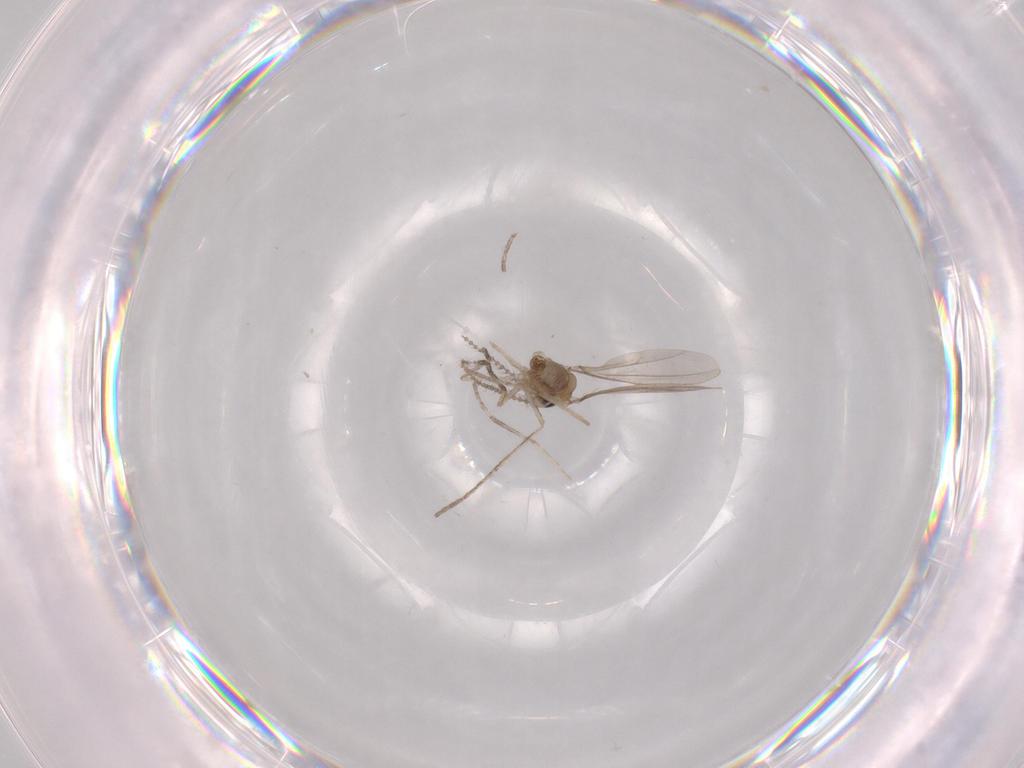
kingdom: Animalia
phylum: Arthropoda
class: Insecta
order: Diptera
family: Cecidomyiidae
